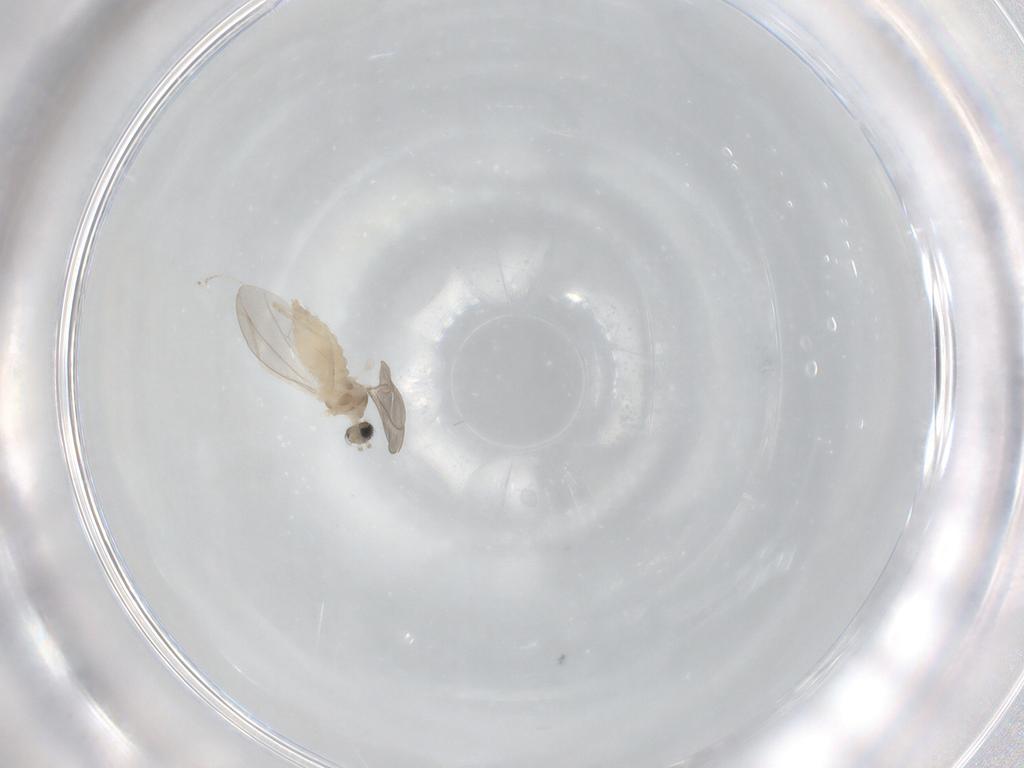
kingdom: Animalia
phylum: Arthropoda
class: Insecta
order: Diptera
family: Cecidomyiidae
